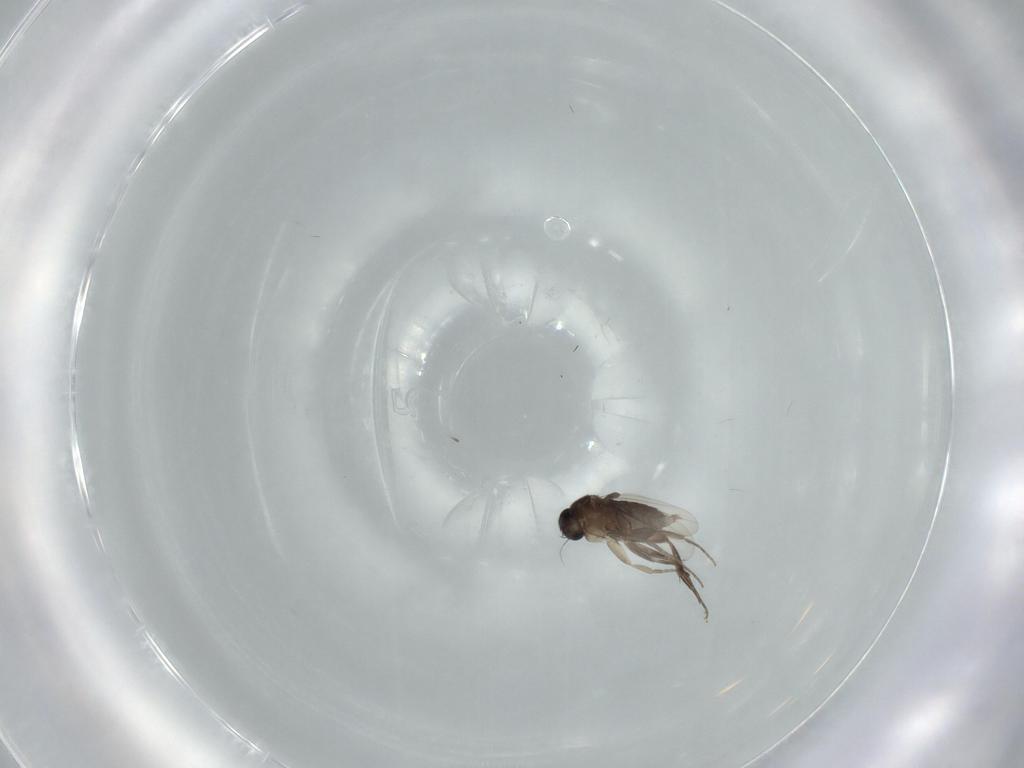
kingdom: Animalia
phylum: Arthropoda
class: Insecta
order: Diptera
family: Phoridae
